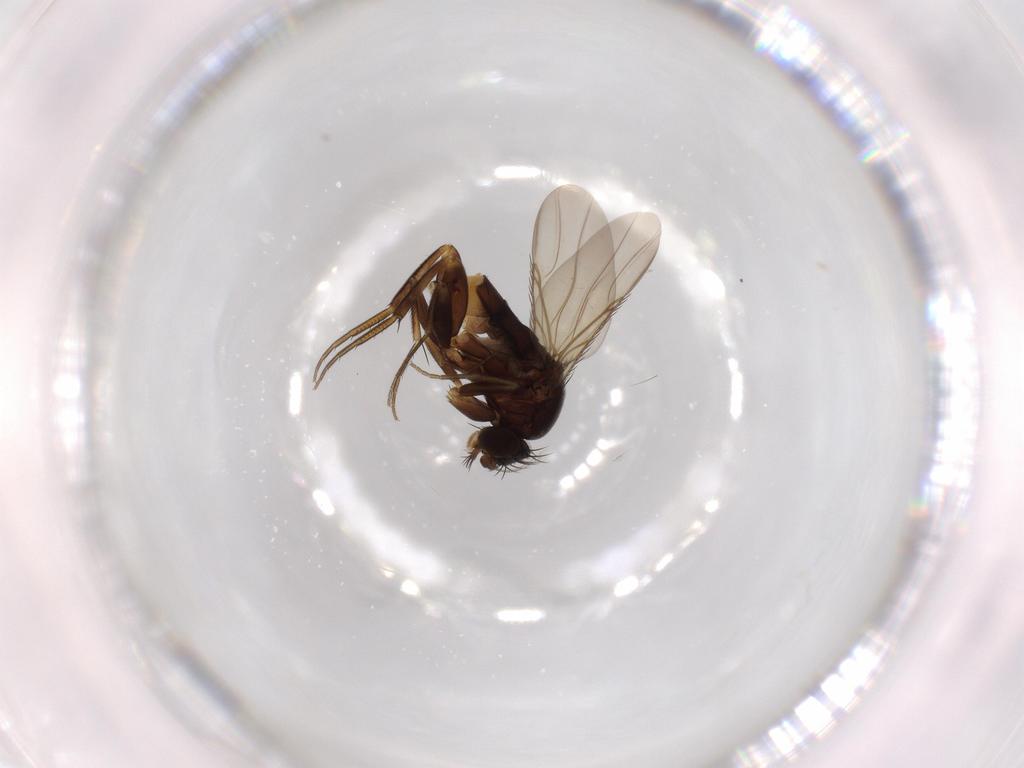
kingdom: Animalia
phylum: Arthropoda
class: Insecta
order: Diptera
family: Phoridae
